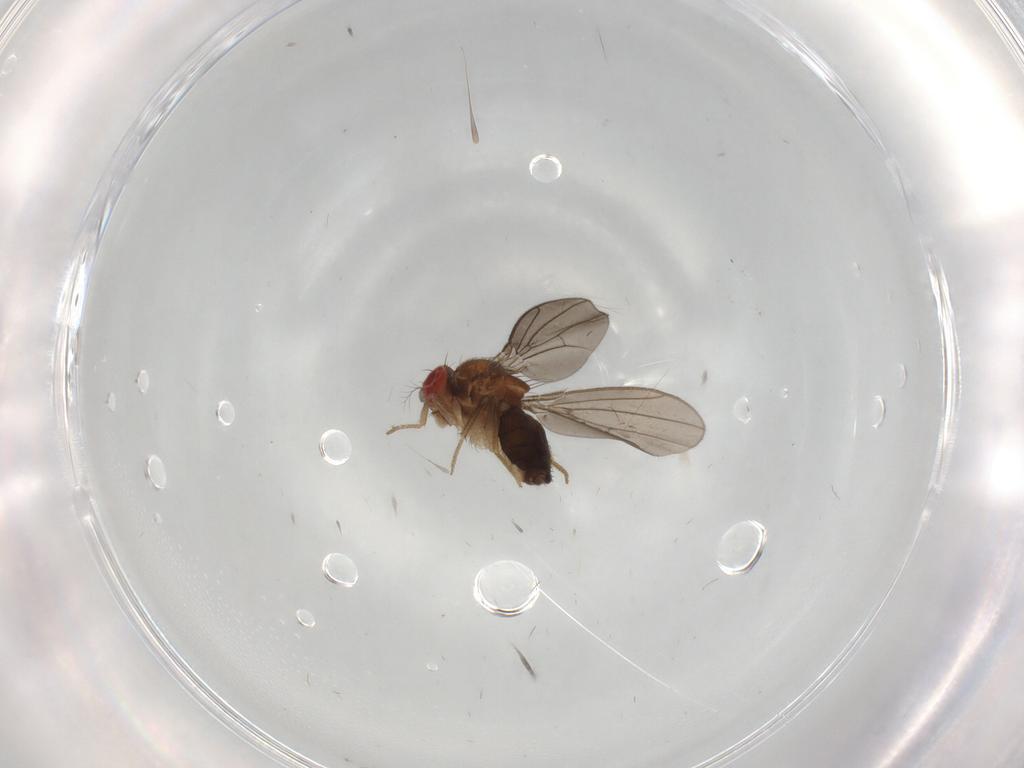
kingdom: Animalia
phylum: Arthropoda
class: Insecta
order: Diptera
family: Drosophilidae
